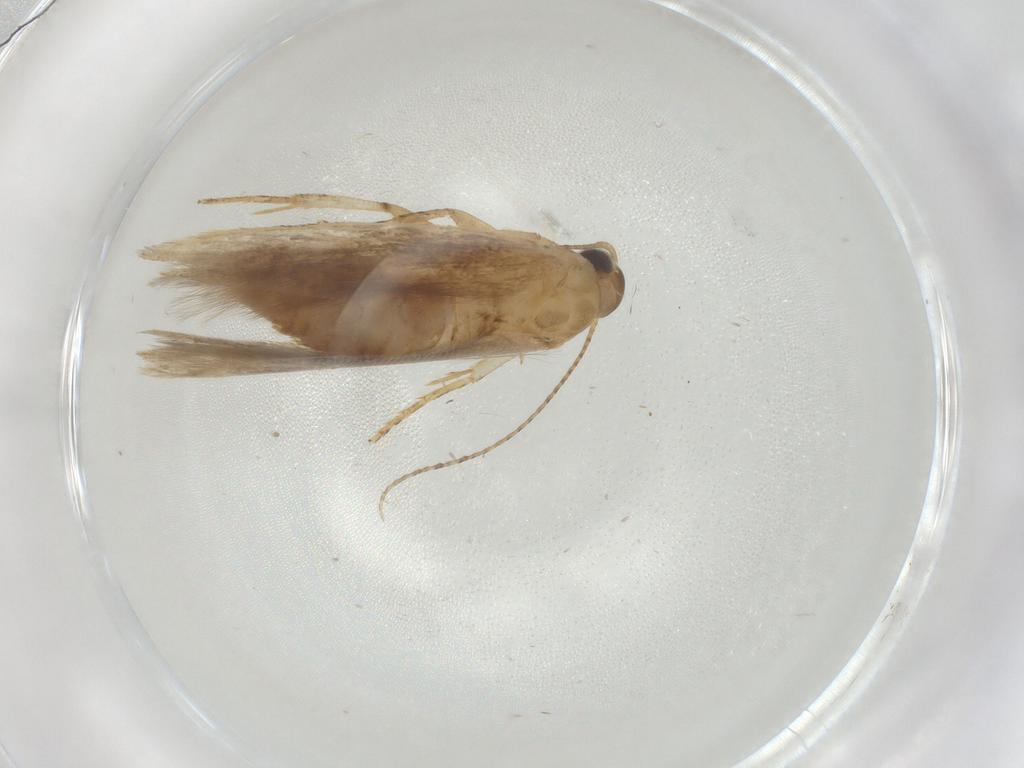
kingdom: Animalia
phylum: Arthropoda
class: Insecta
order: Lepidoptera
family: Gelechiidae
